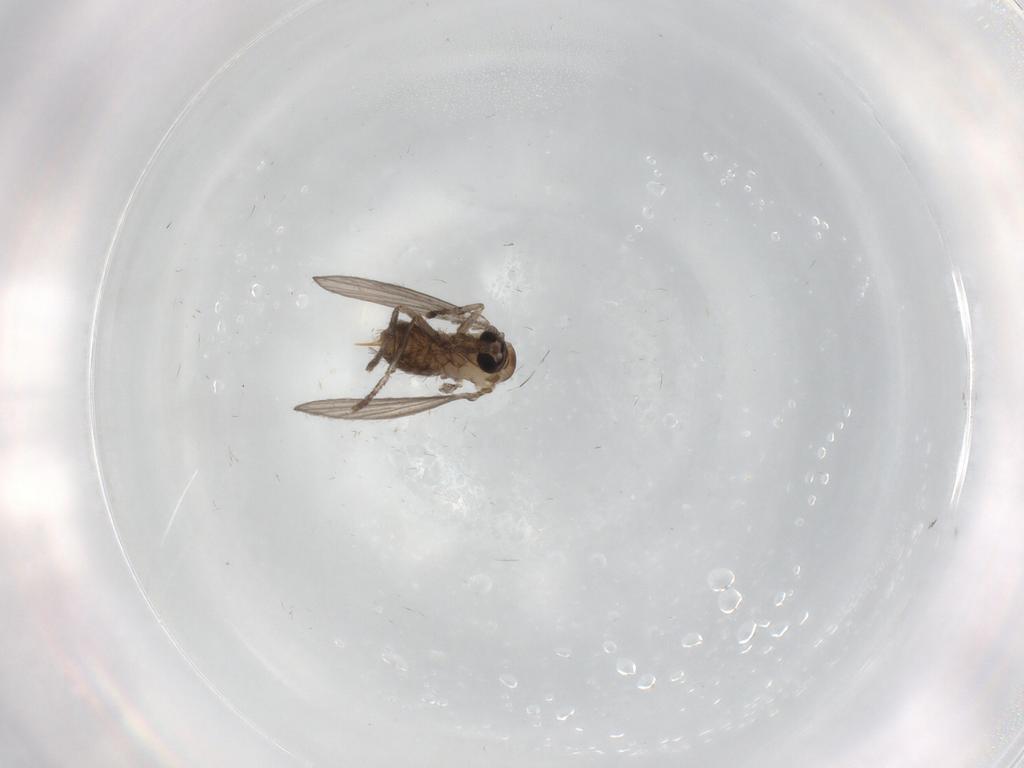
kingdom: Animalia
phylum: Arthropoda
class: Insecta
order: Diptera
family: Psychodidae
